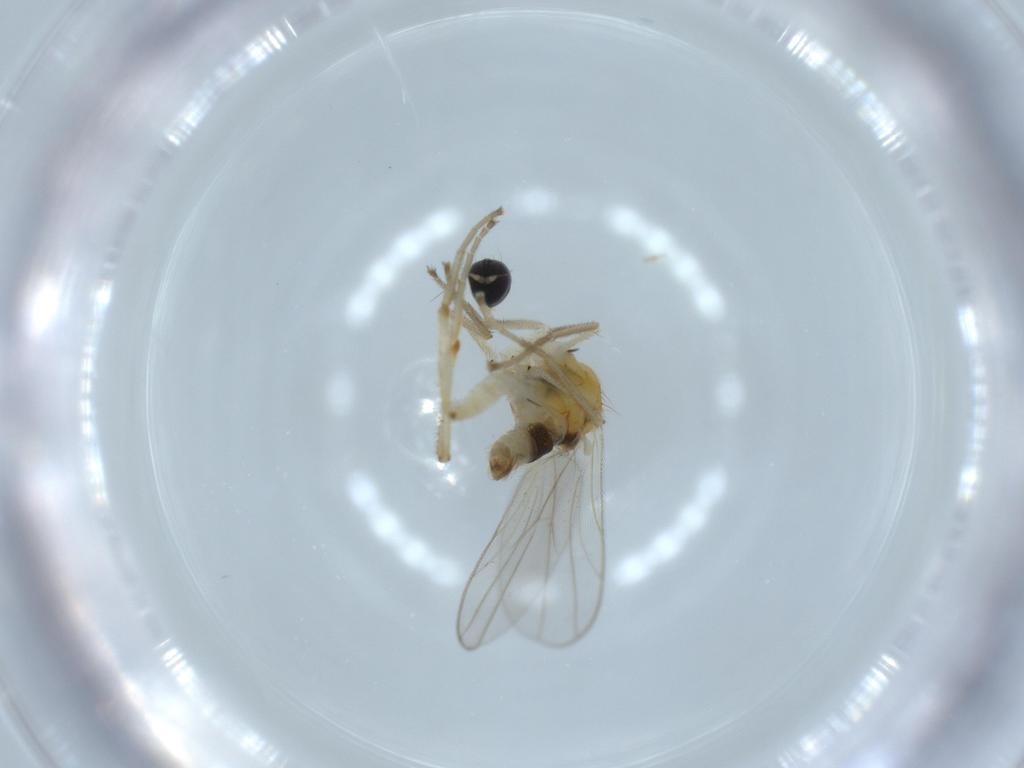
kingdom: Animalia
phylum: Arthropoda
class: Insecta
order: Diptera
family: Hybotidae
